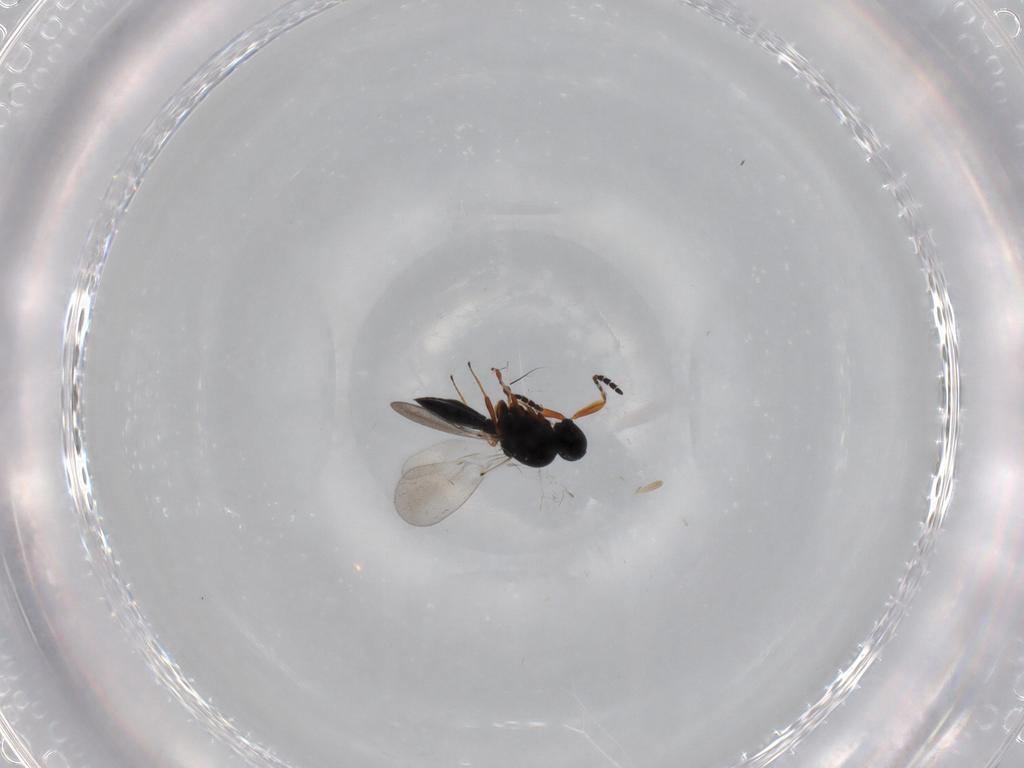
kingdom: Animalia
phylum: Arthropoda
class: Insecta
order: Hymenoptera
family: Platygastridae
